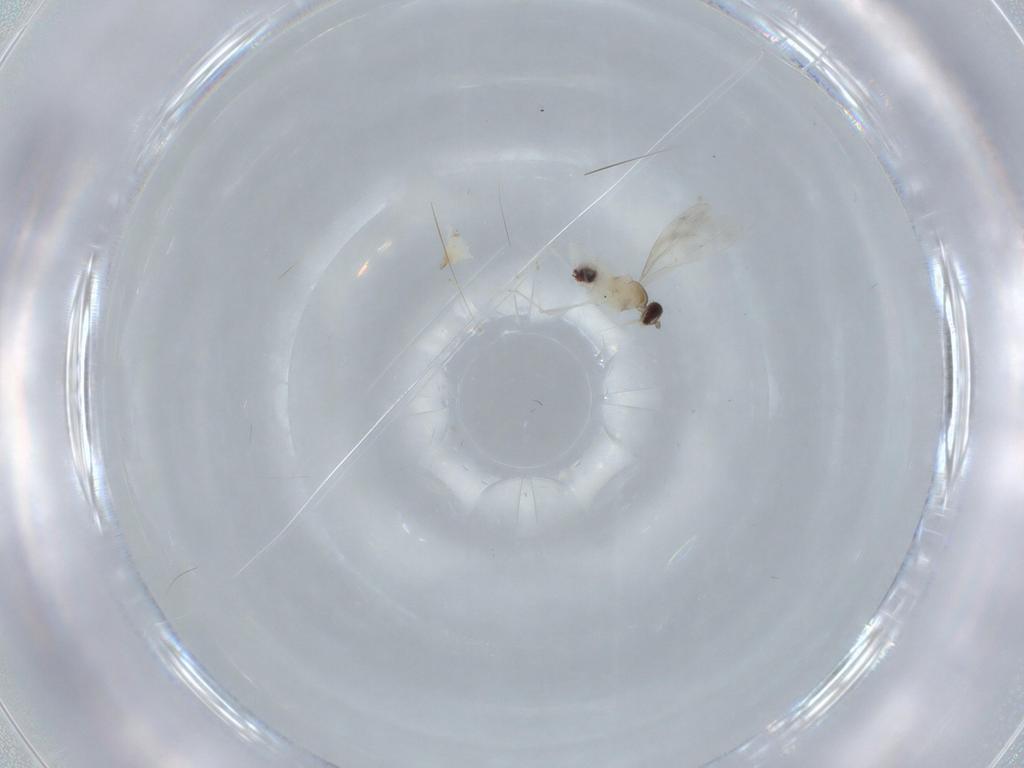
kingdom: Animalia
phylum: Arthropoda
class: Insecta
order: Diptera
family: Cecidomyiidae
